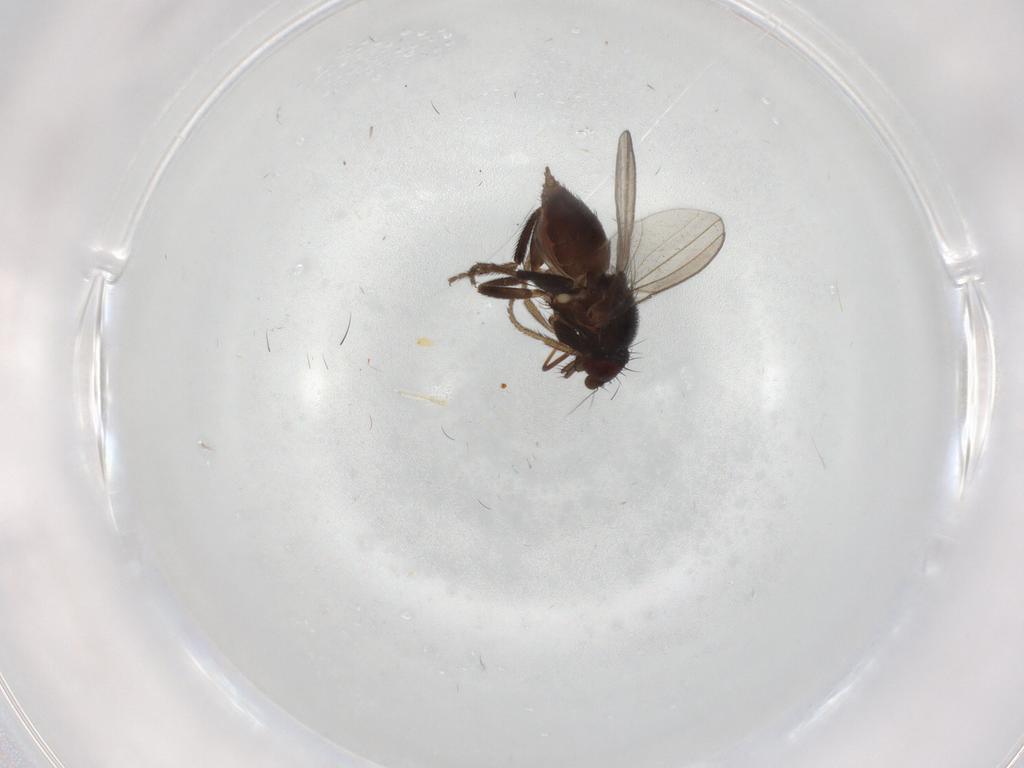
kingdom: Animalia
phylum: Arthropoda
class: Insecta
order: Diptera
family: Milichiidae
